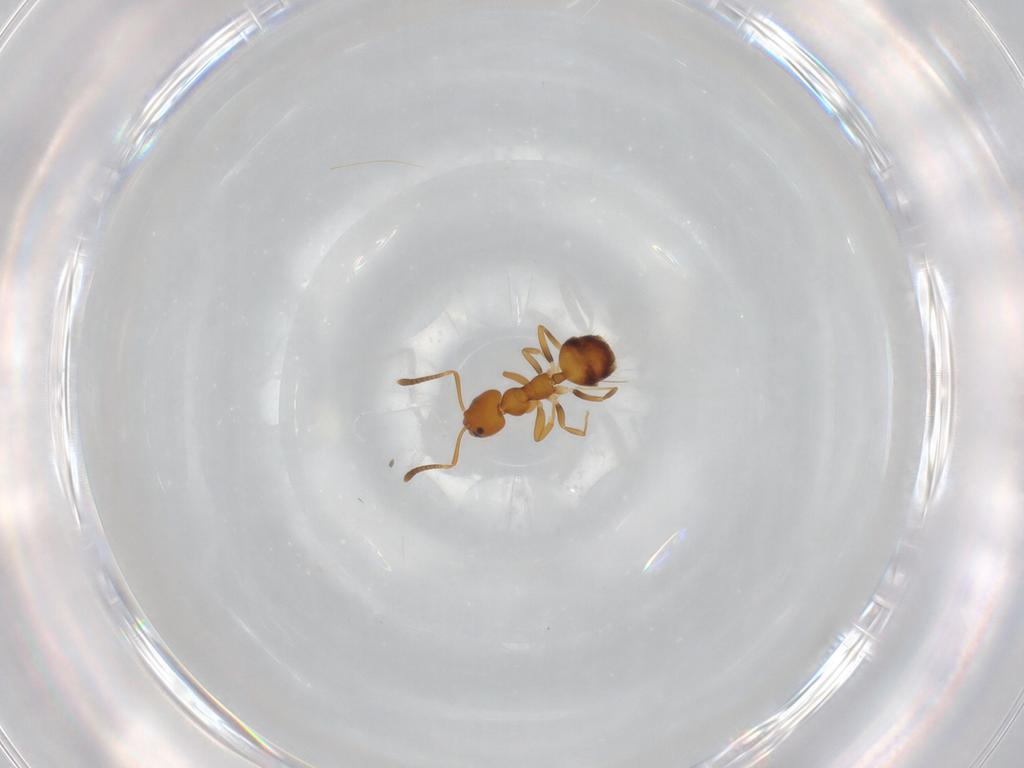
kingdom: Animalia
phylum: Arthropoda
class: Insecta
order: Hymenoptera
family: Formicidae
